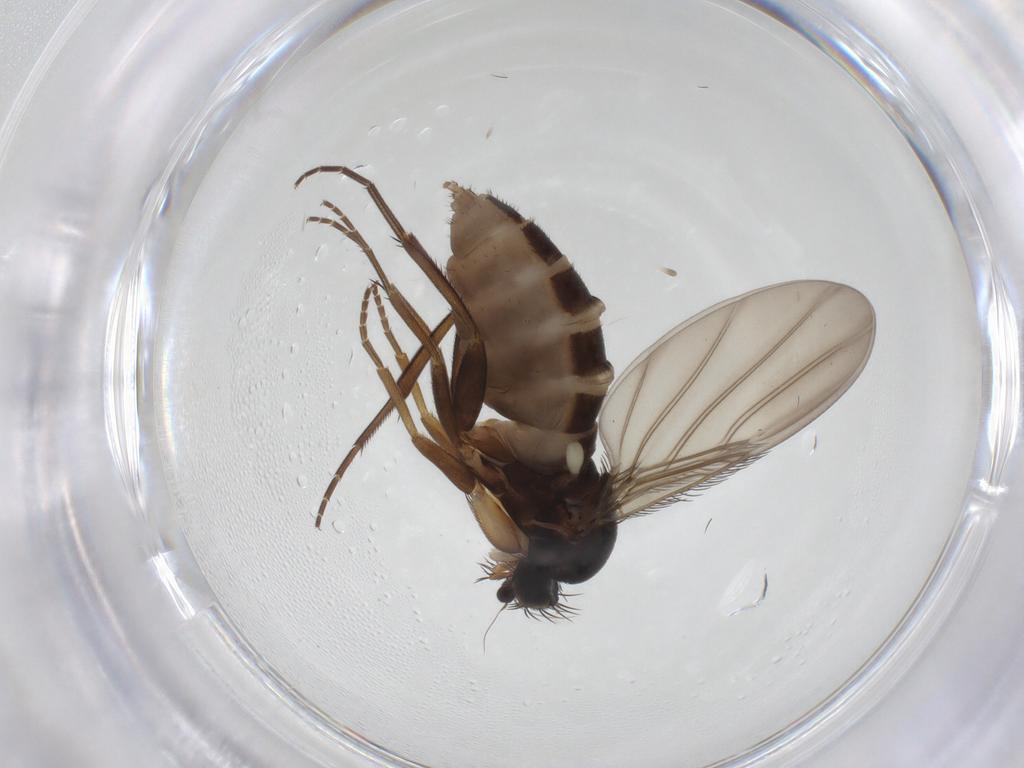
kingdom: Animalia
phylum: Arthropoda
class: Insecta
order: Diptera
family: Phoridae
